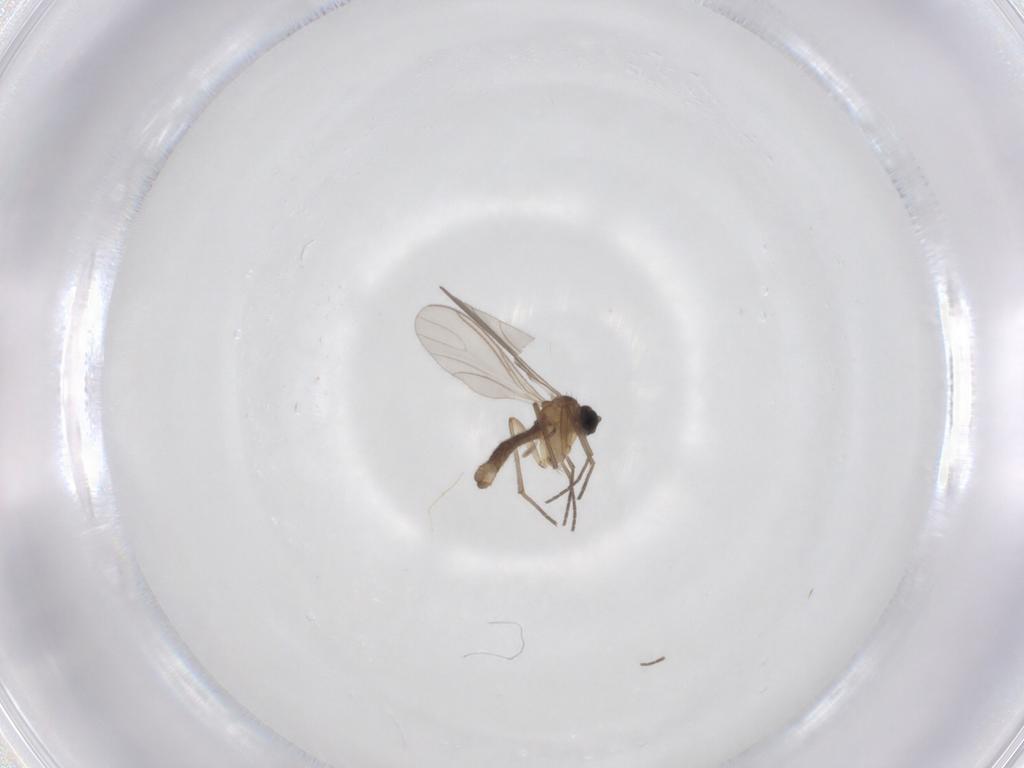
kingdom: Animalia
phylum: Arthropoda
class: Insecta
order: Diptera
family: Sciaridae
